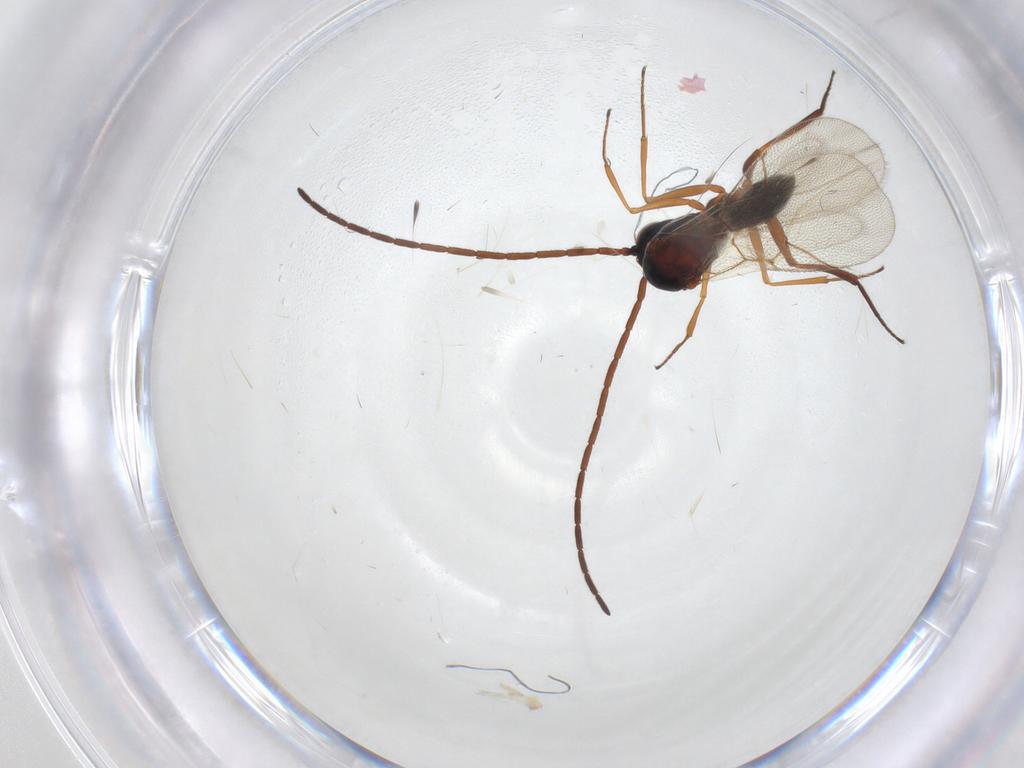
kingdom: Animalia
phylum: Arthropoda
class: Insecta
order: Hymenoptera
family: Figitidae
